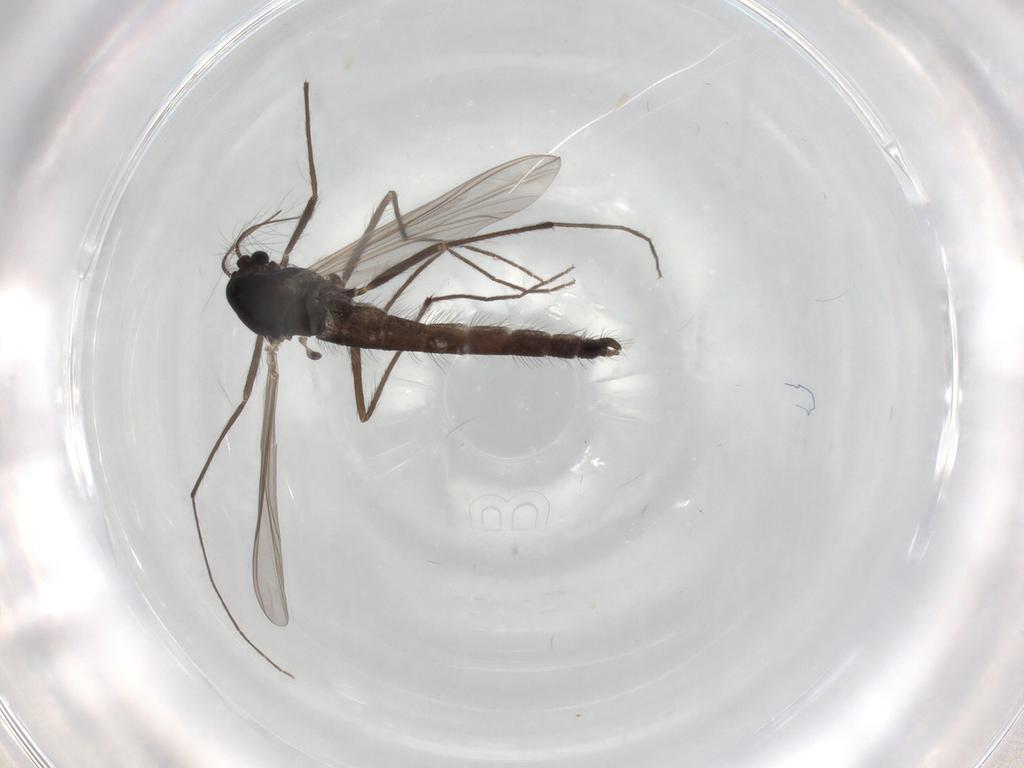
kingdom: Animalia
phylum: Arthropoda
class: Insecta
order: Diptera
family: Chironomidae
